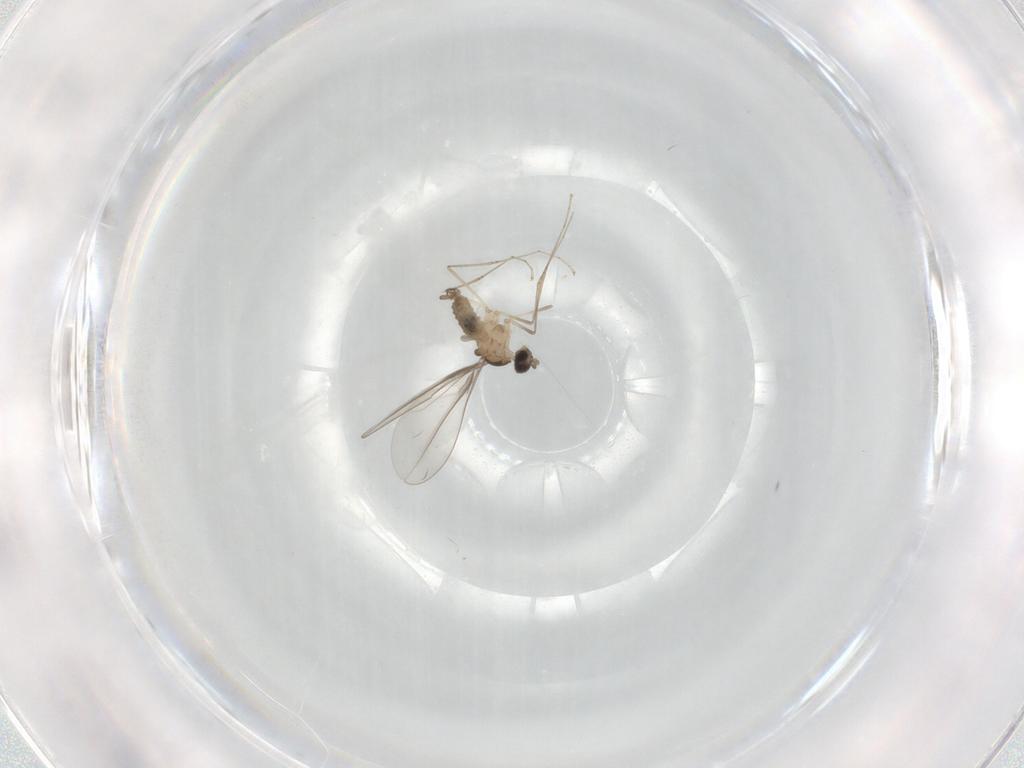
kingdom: Animalia
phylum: Arthropoda
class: Insecta
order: Diptera
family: Cecidomyiidae
